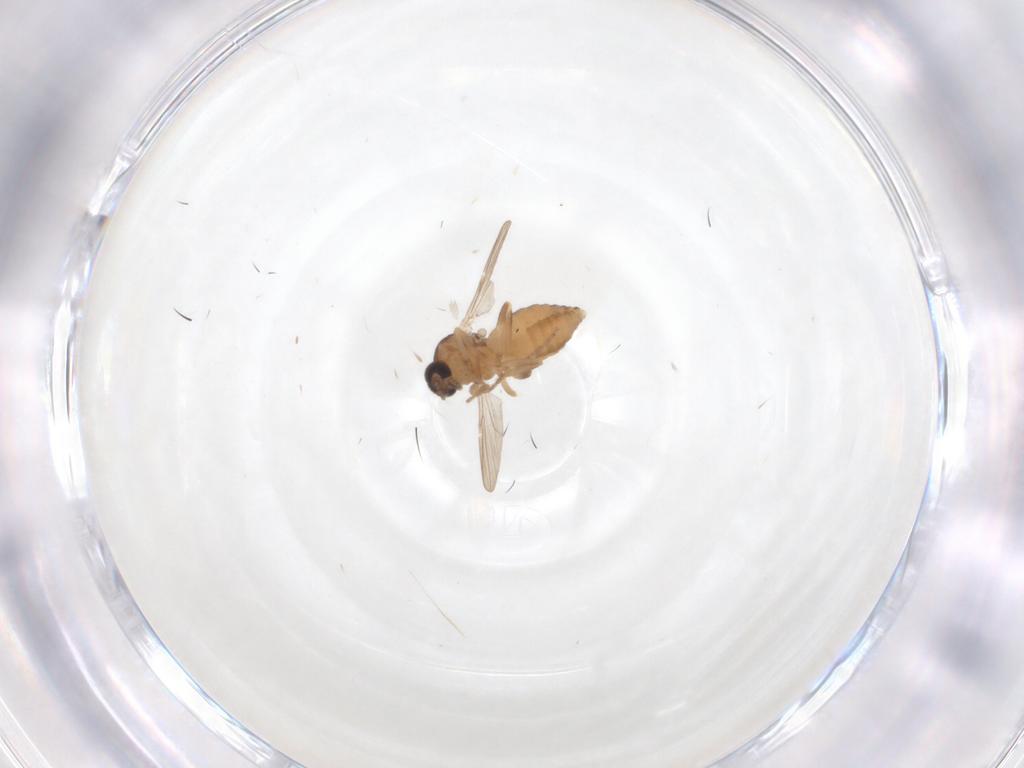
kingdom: Animalia
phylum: Arthropoda
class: Insecta
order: Diptera
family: Ceratopogonidae
